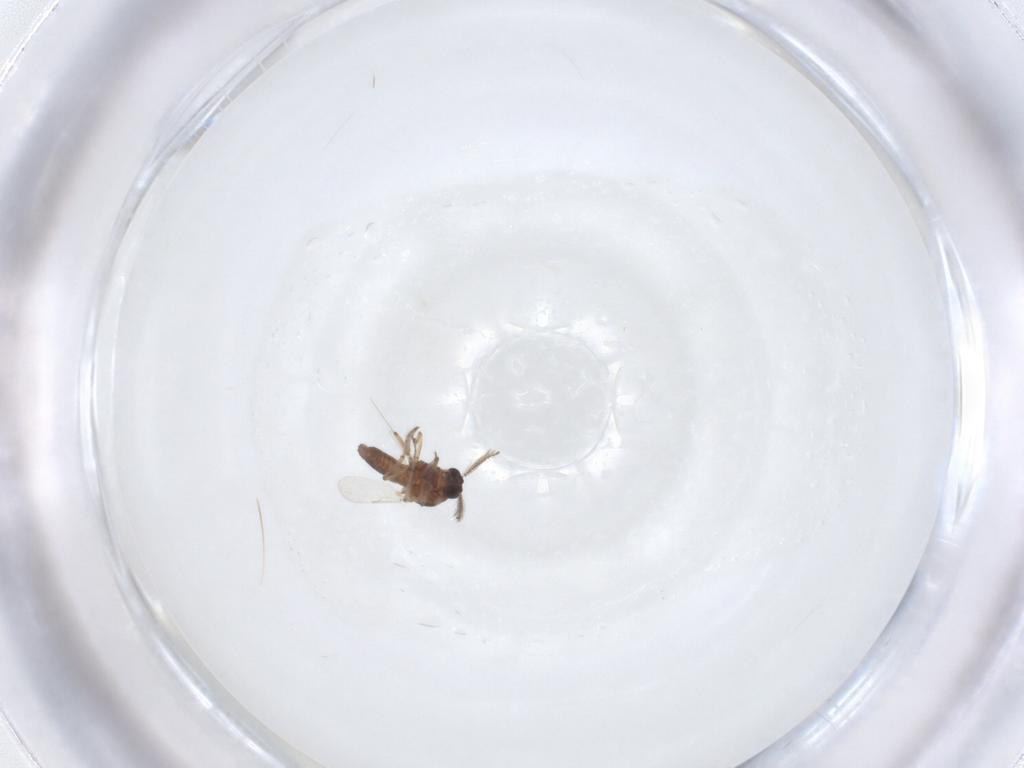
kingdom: Animalia
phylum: Arthropoda
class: Insecta
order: Diptera
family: Ceratopogonidae
